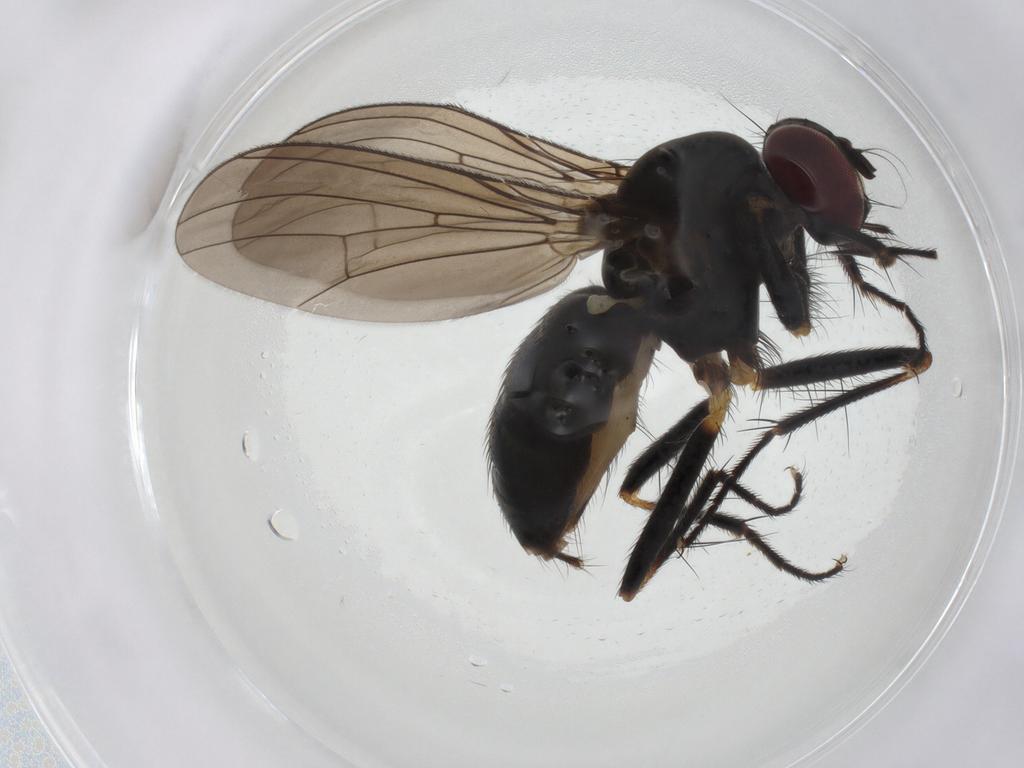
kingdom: Animalia
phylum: Arthropoda
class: Insecta
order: Diptera
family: Anthomyiidae
